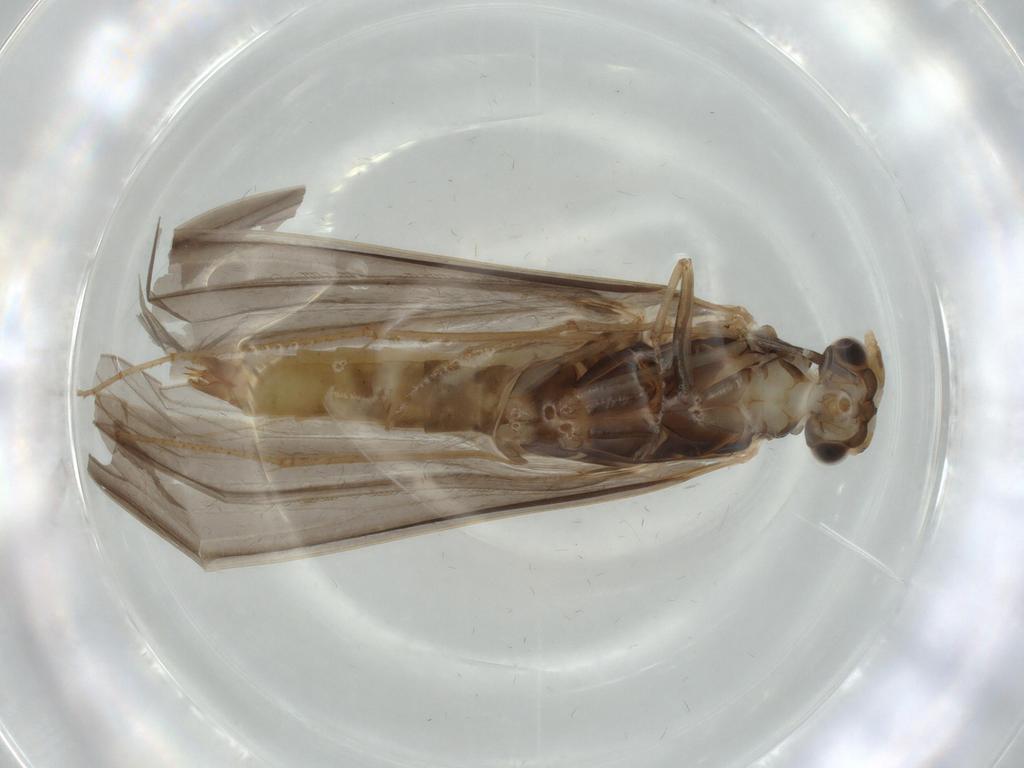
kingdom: Animalia
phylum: Arthropoda
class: Insecta
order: Trichoptera
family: Leptoceridae
